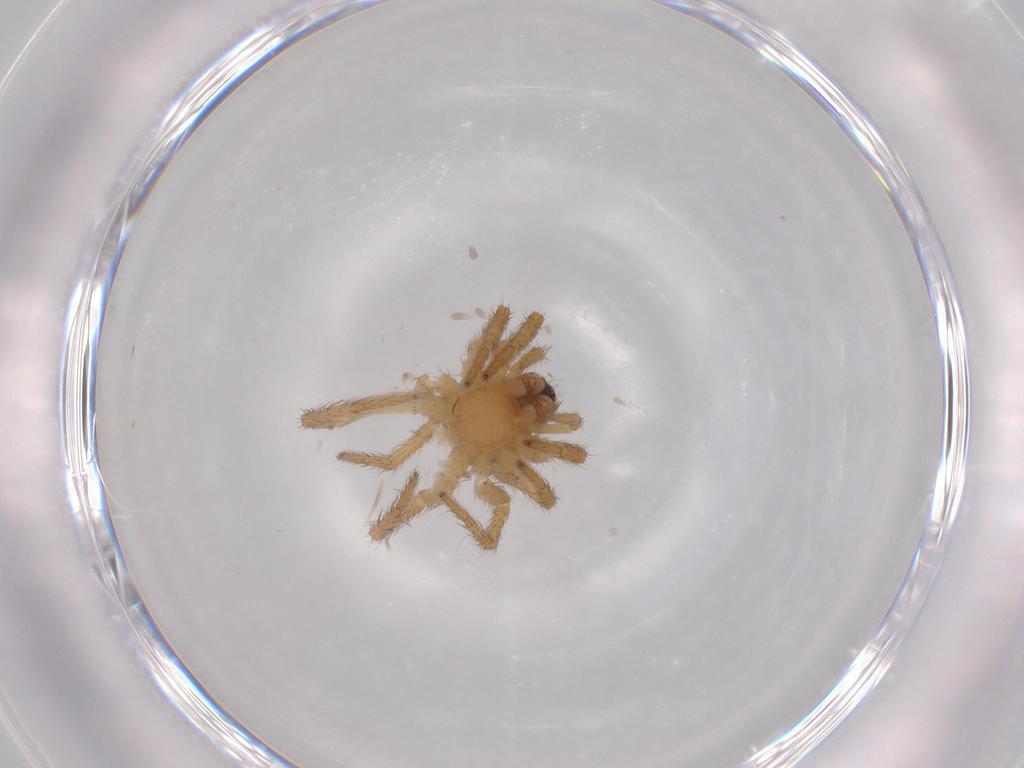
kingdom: Animalia
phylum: Arthropoda
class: Arachnida
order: Araneae
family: Lycosidae
